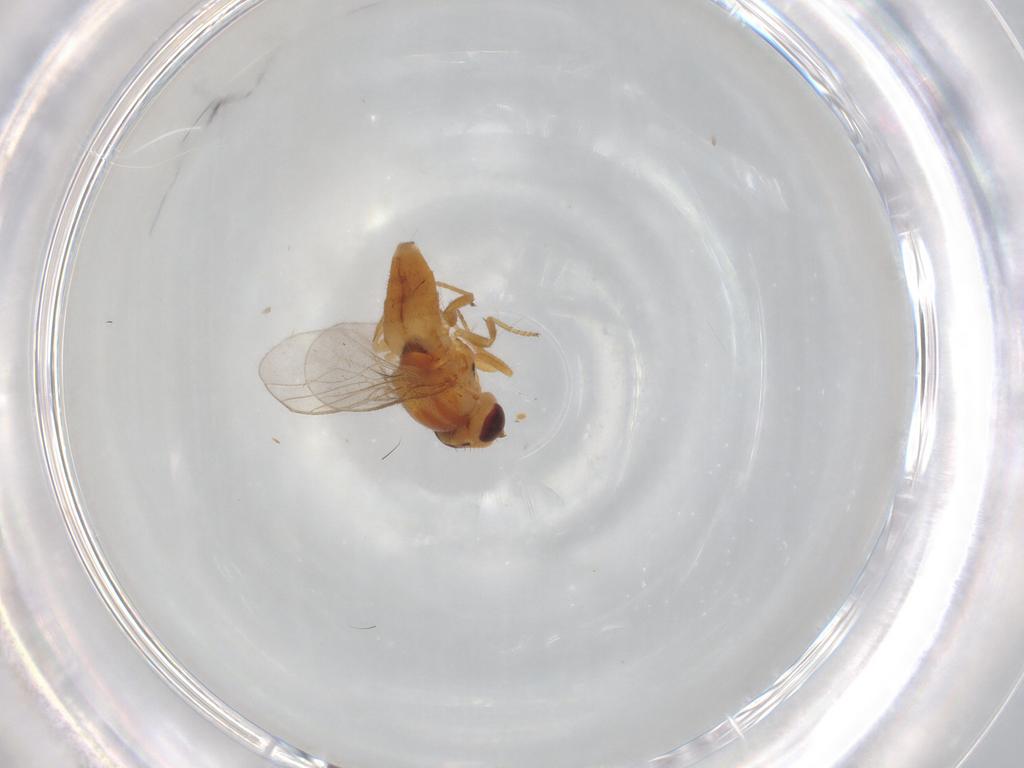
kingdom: Animalia
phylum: Arthropoda
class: Insecta
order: Diptera
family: Chloropidae
